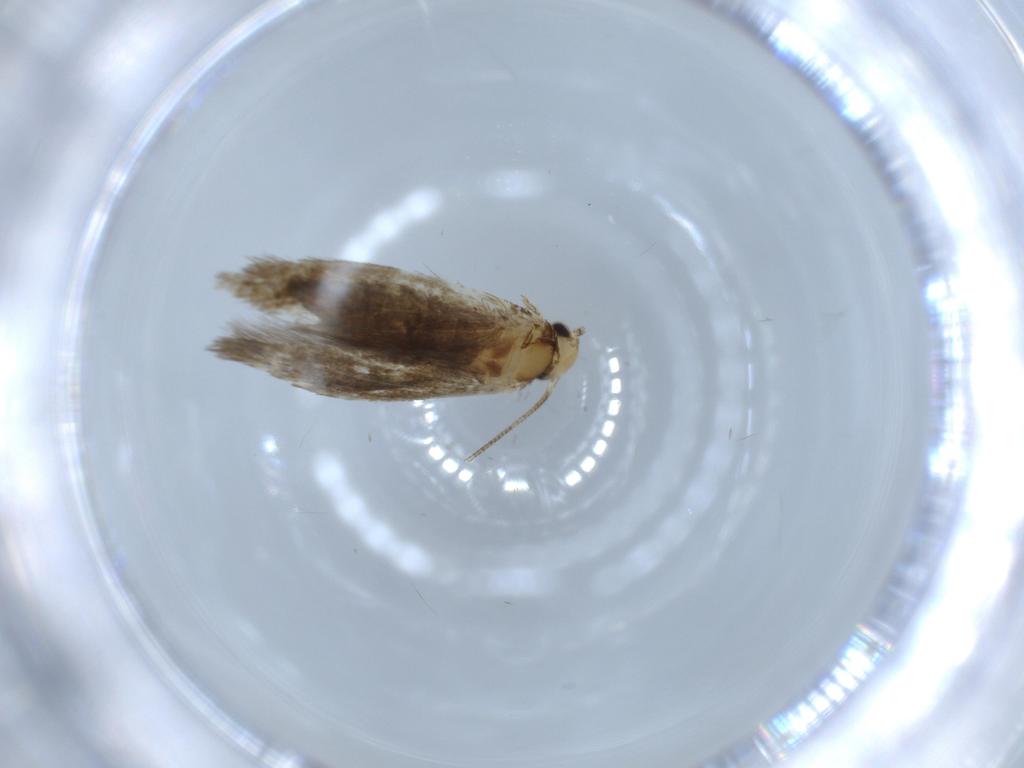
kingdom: Animalia
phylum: Arthropoda
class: Insecta
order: Lepidoptera
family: Tineidae
